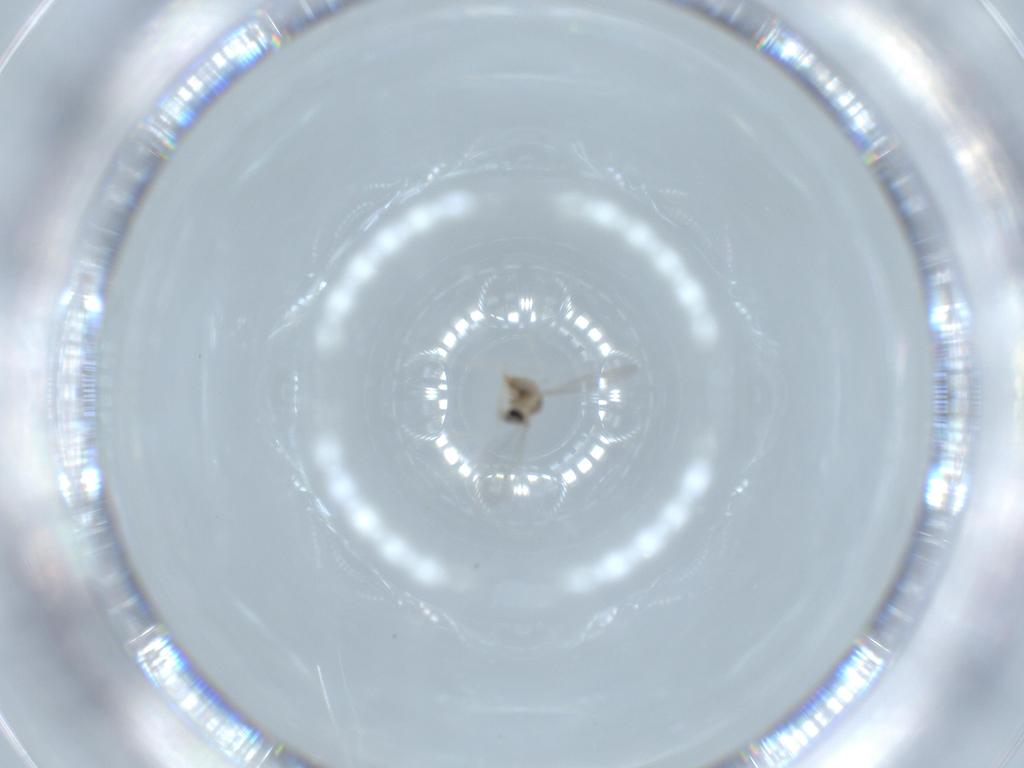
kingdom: Animalia
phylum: Arthropoda
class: Insecta
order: Diptera
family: Cecidomyiidae
